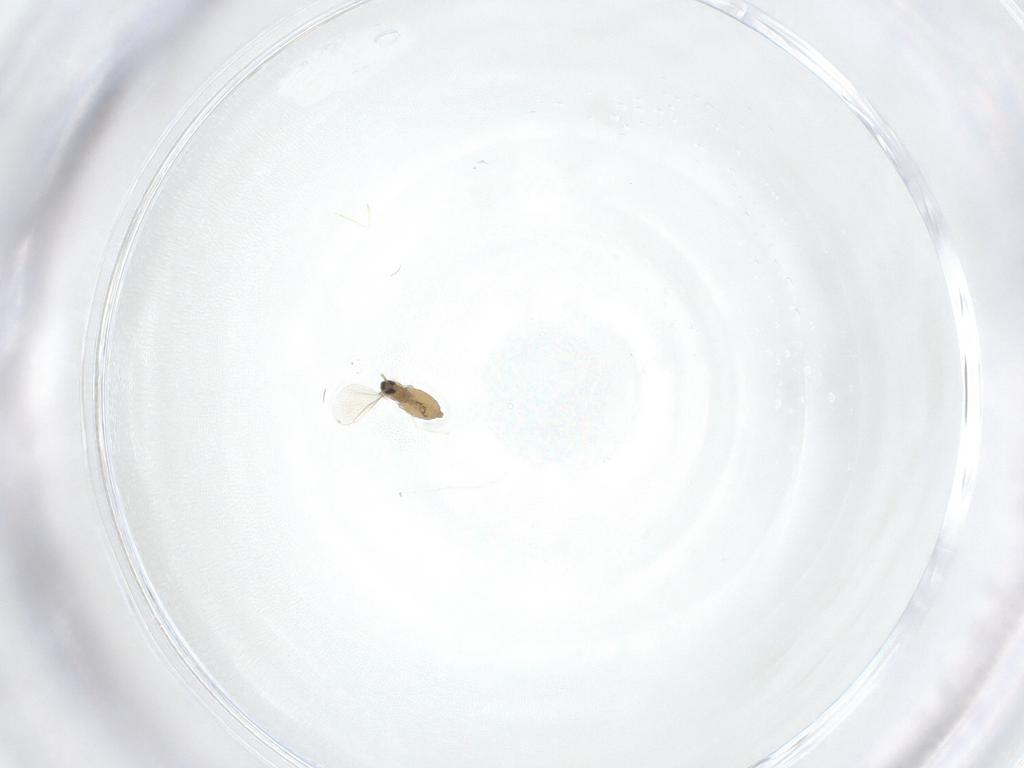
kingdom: Animalia
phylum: Arthropoda
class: Insecta
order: Diptera
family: Cecidomyiidae
